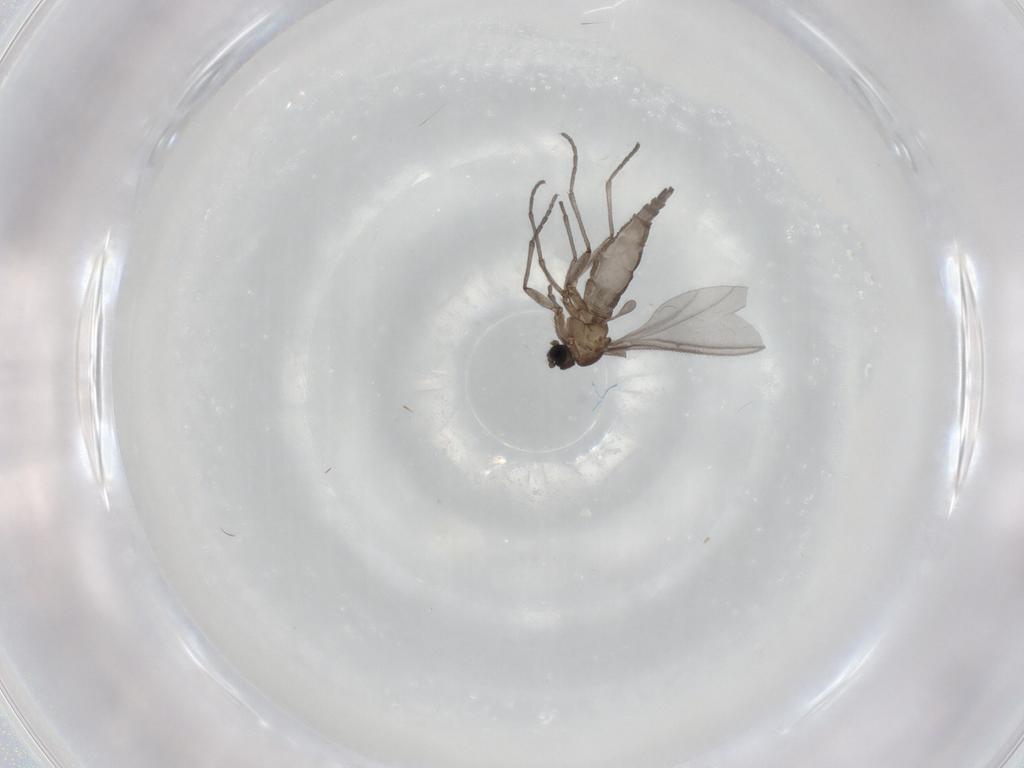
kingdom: Animalia
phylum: Arthropoda
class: Insecta
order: Diptera
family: Sciaridae
